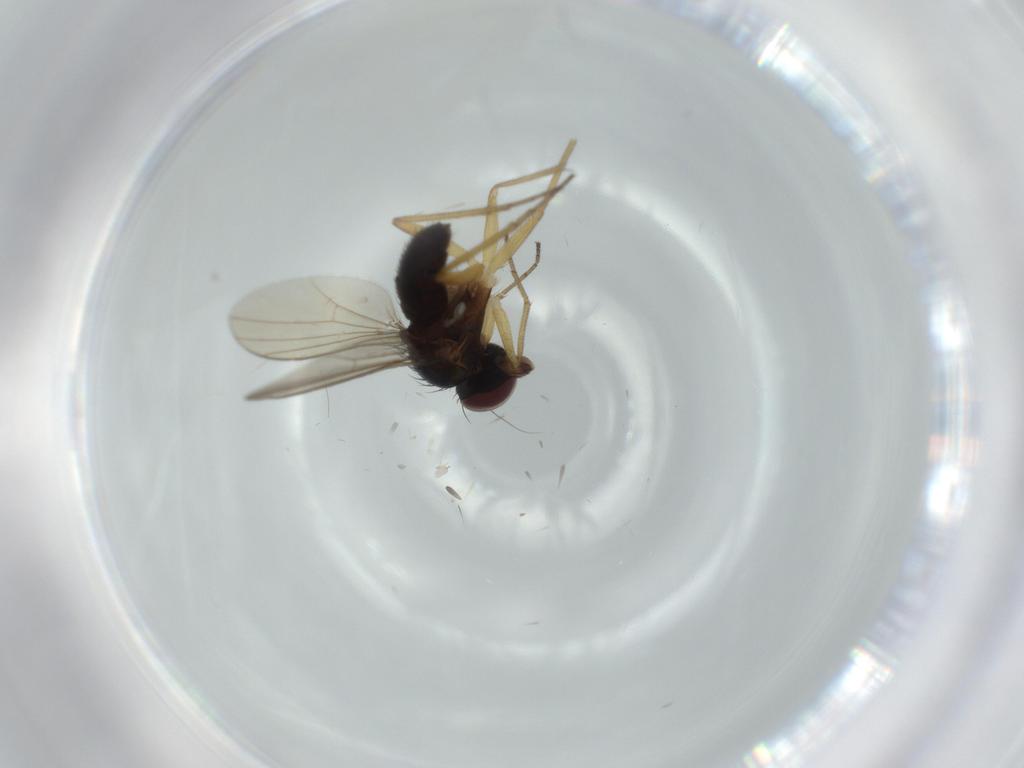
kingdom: Animalia
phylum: Arthropoda
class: Insecta
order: Diptera
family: Dolichopodidae
